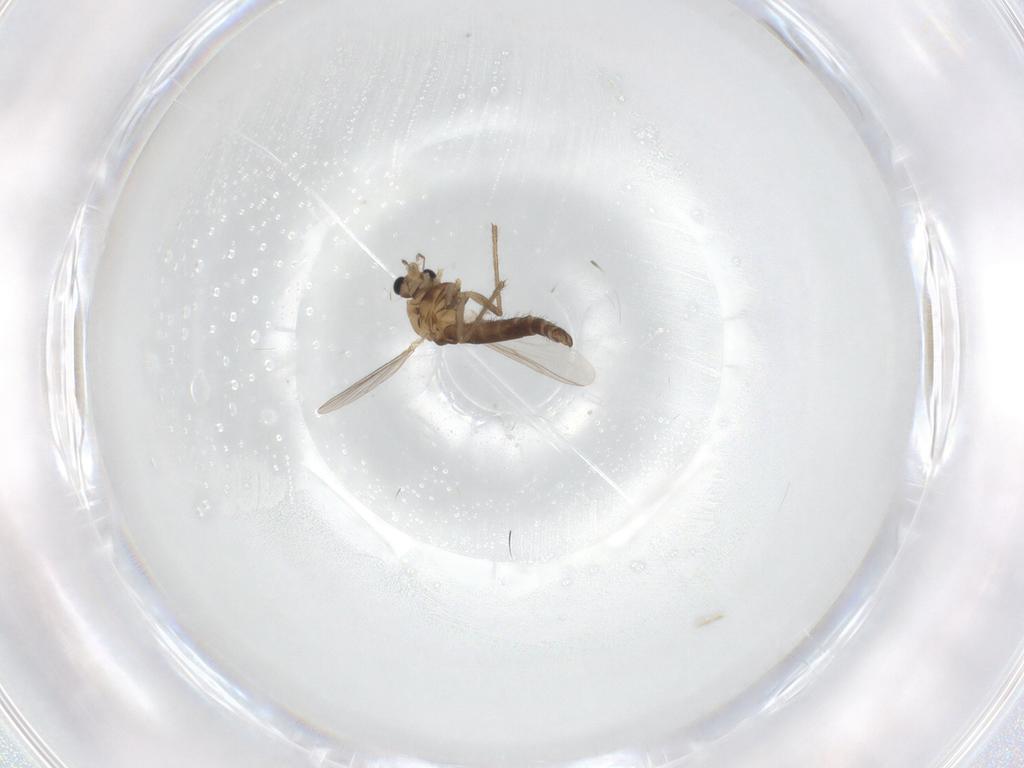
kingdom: Animalia
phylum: Arthropoda
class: Insecta
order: Diptera
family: Chironomidae
